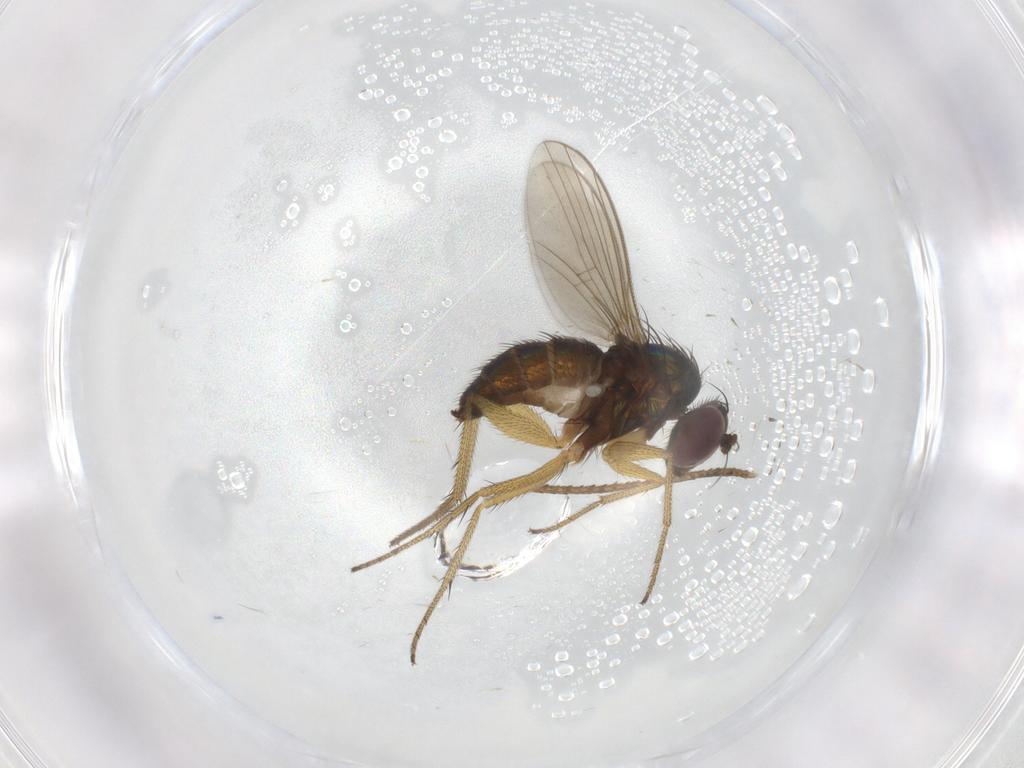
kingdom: Animalia
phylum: Arthropoda
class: Insecta
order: Diptera
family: Dolichopodidae
